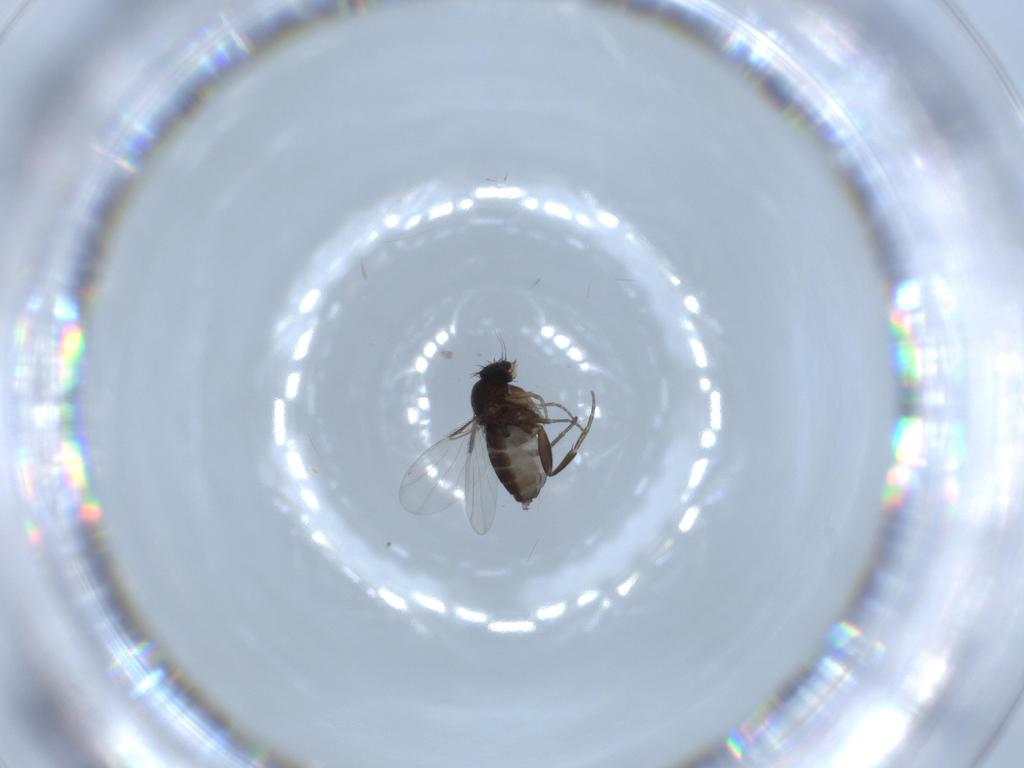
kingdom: Animalia
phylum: Arthropoda
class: Insecta
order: Diptera
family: Phoridae
